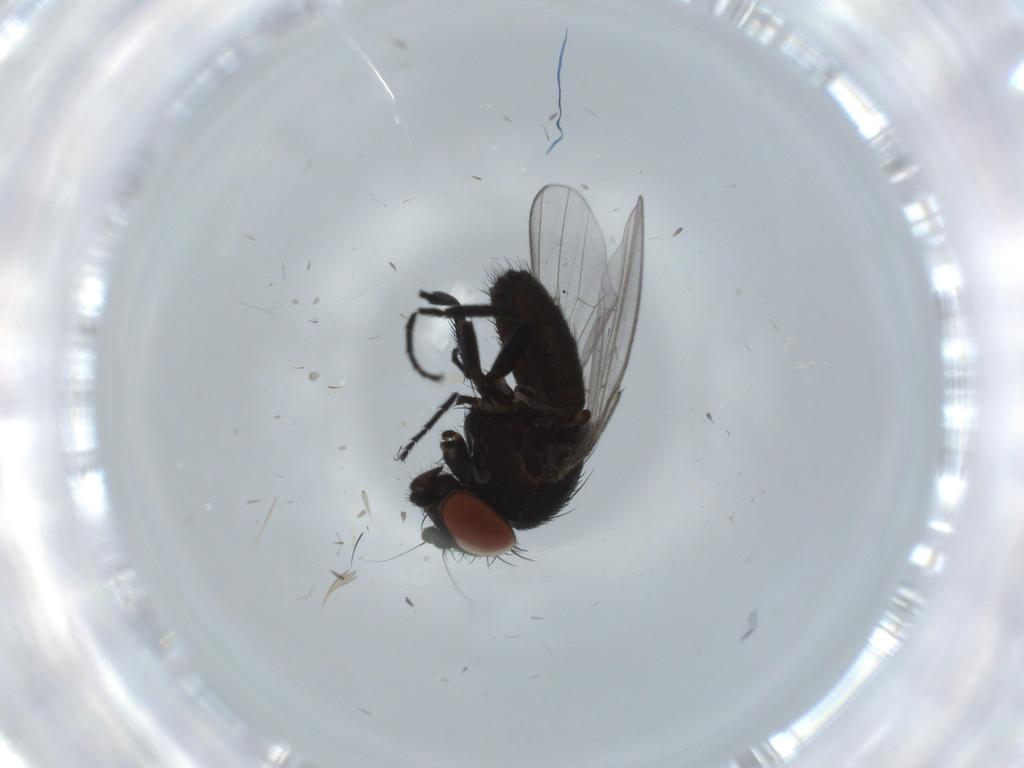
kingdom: Animalia
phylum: Arthropoda
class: Insecta
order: Diptera
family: Milichiidae
